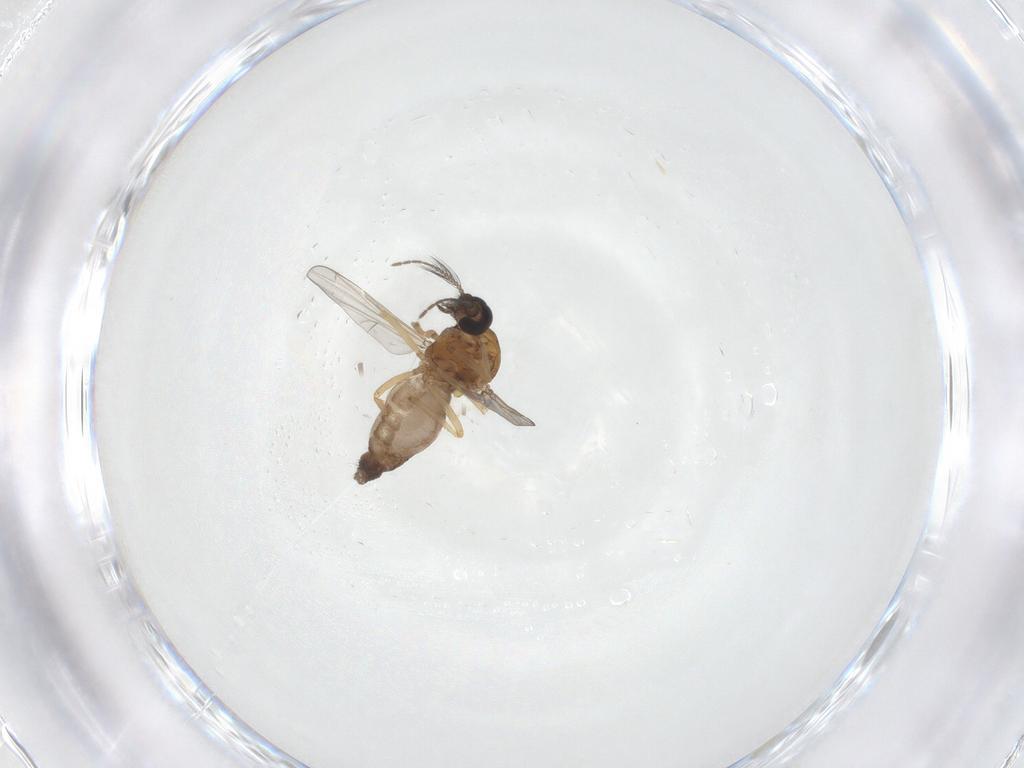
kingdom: Animalia
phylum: Arthropoda
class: Insecta
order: Diptera
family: Ceratopogonidae
